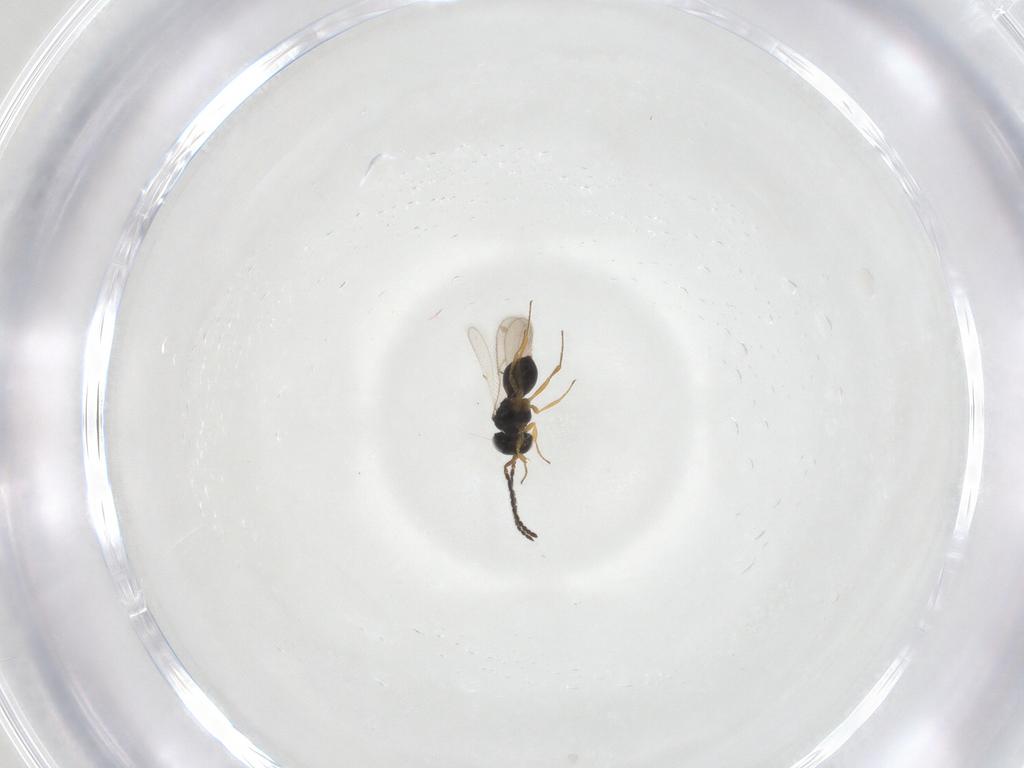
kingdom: Animalia
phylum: Arthropoda
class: Insecta
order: Hymenoptera
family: Scelionidae
